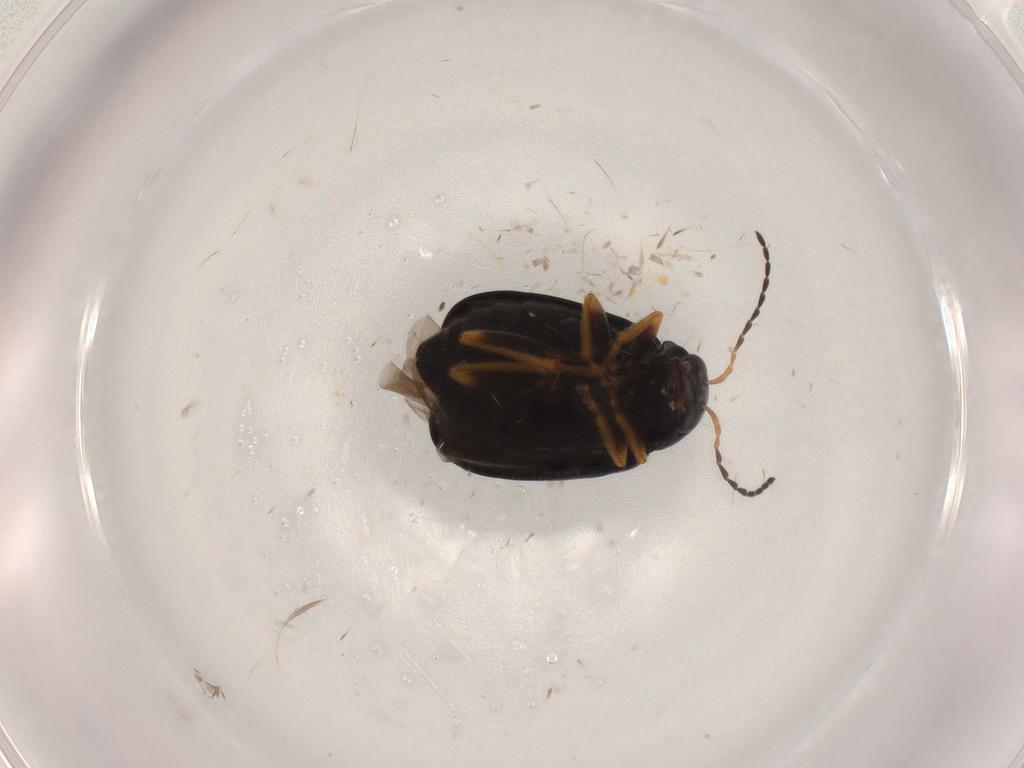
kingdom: Animalia
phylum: Arthropoda
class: Insecta
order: Coleoptera
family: Chrysomelidae
